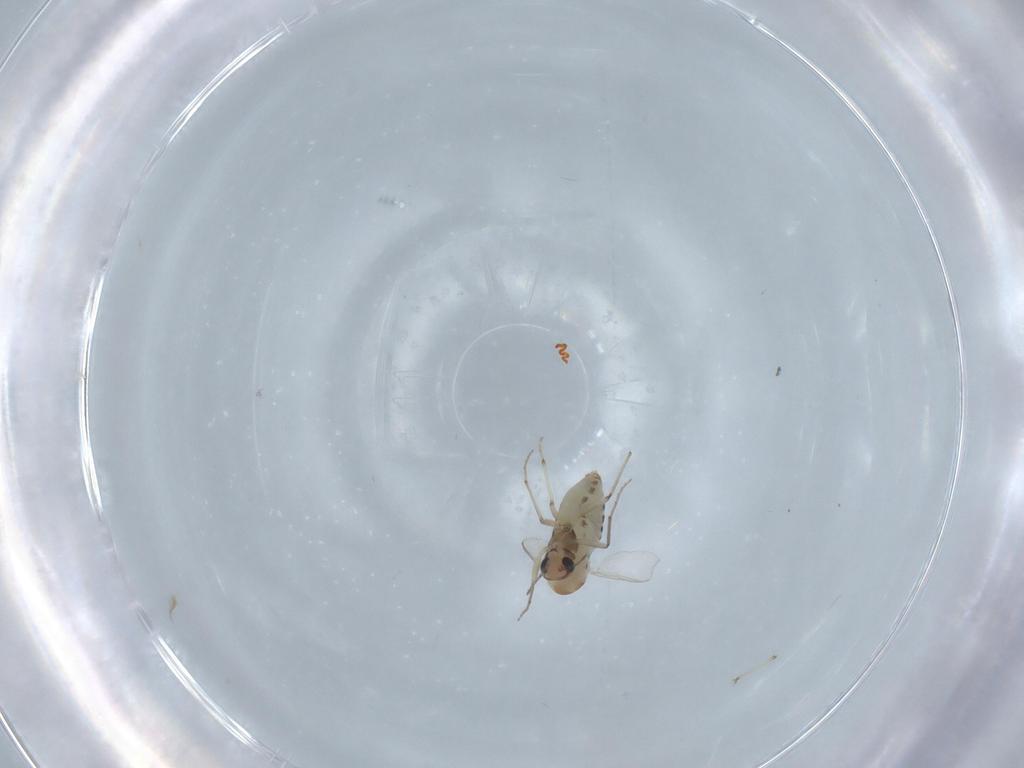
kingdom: Animalia
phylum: Arthropoda
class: Insecta
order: Diptera
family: Chironomidae
